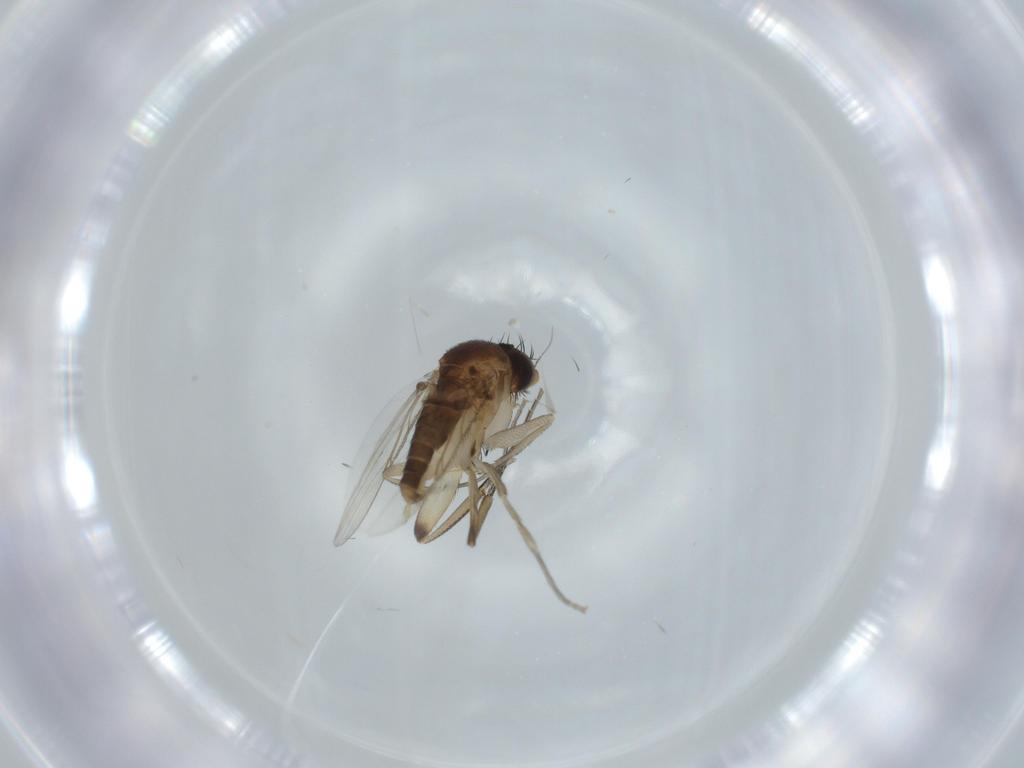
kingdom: Animalia
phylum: Arthropoda
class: Insecta
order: Diptera
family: Phoridae
